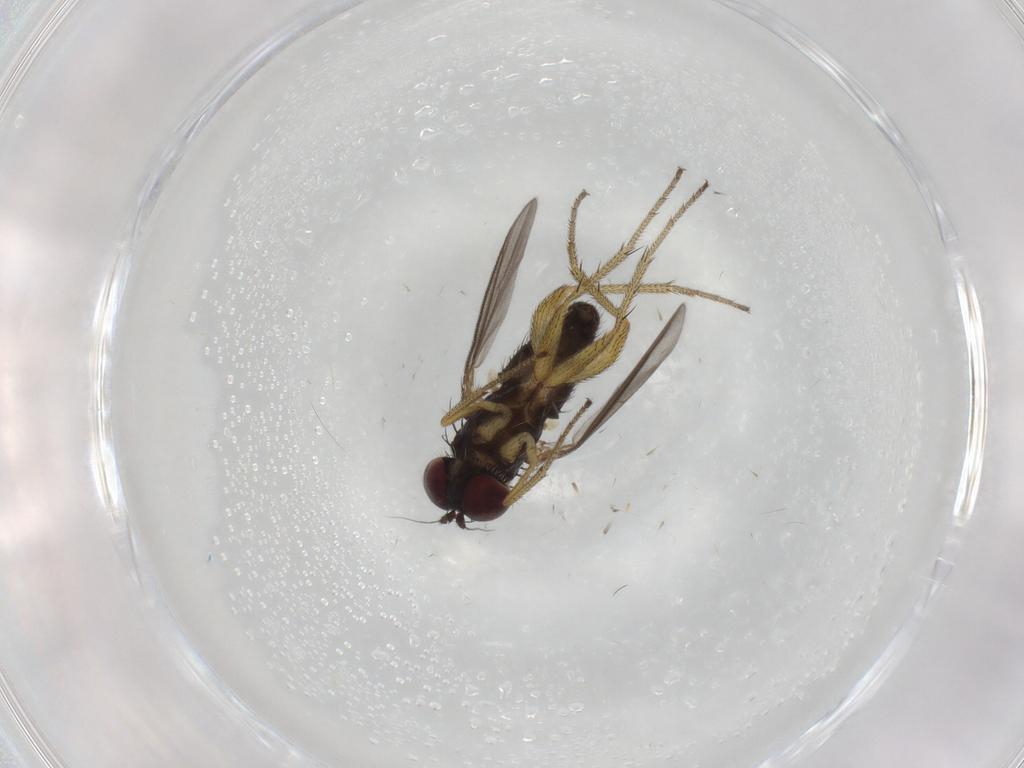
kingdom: Animalia
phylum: Arthropoda
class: Insecta
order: Diptera
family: Dolichopodidae
